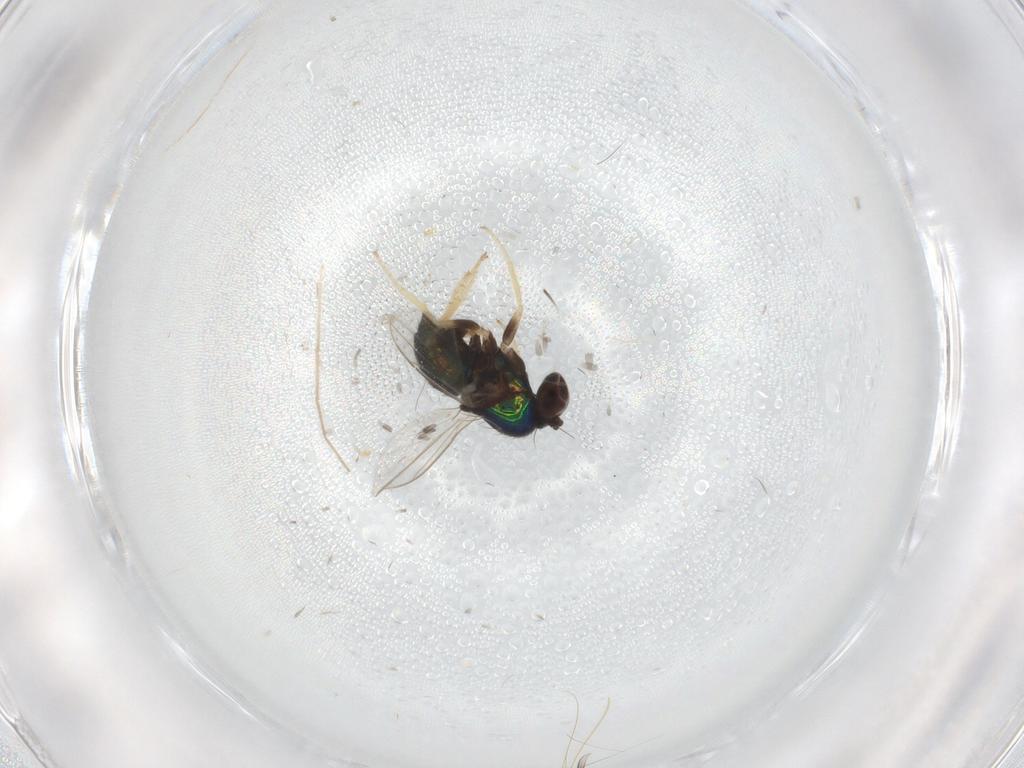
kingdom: Animalia
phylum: Arthropoda
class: Insecta
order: Diptera
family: Dolichopodidae
